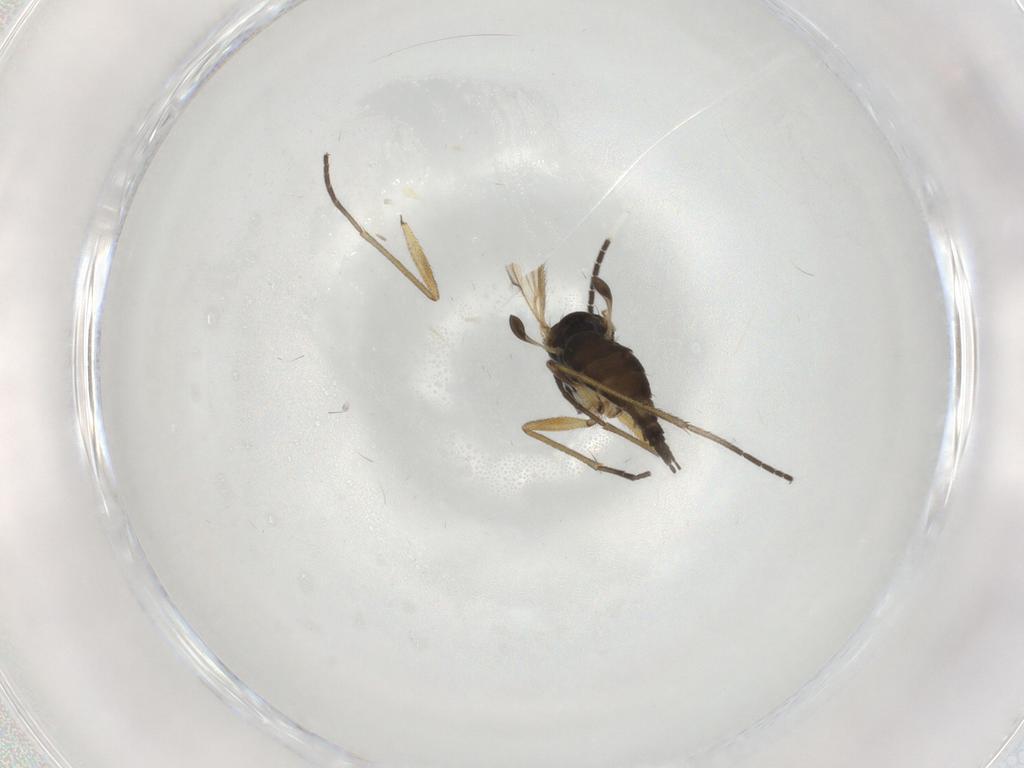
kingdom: Animalia
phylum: Arthropoda
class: Insecta
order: Diptera
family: Sciaridae
